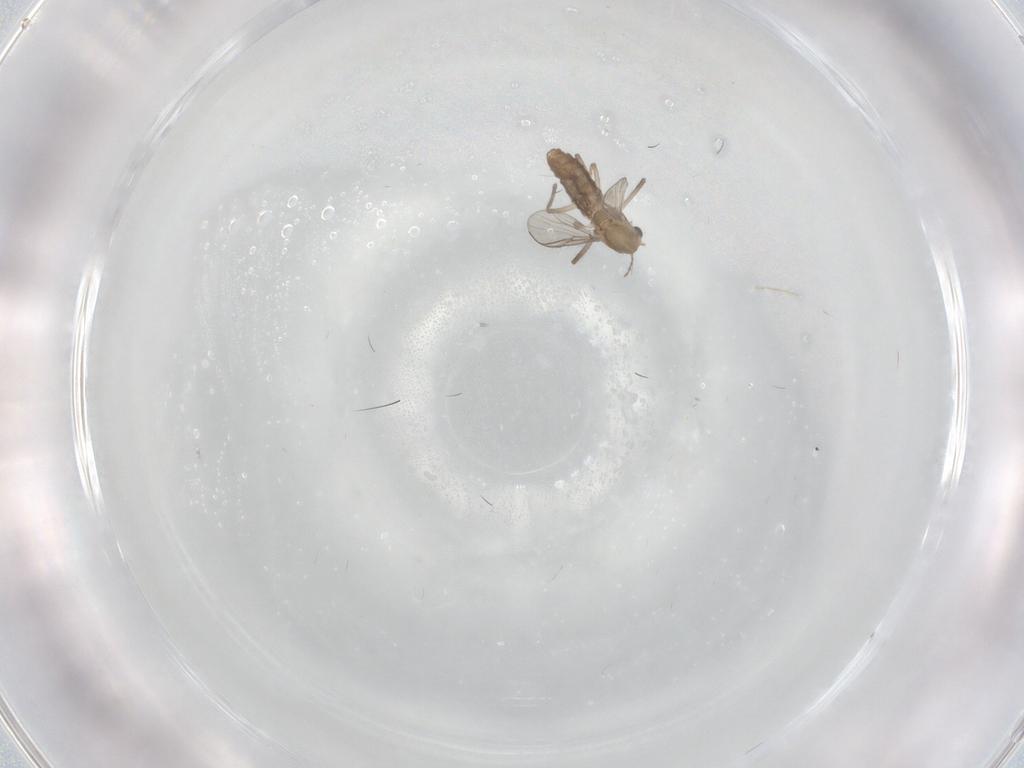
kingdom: Animalia
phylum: Arthropoda
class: Insecta
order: Diptera
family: Chironomidae
